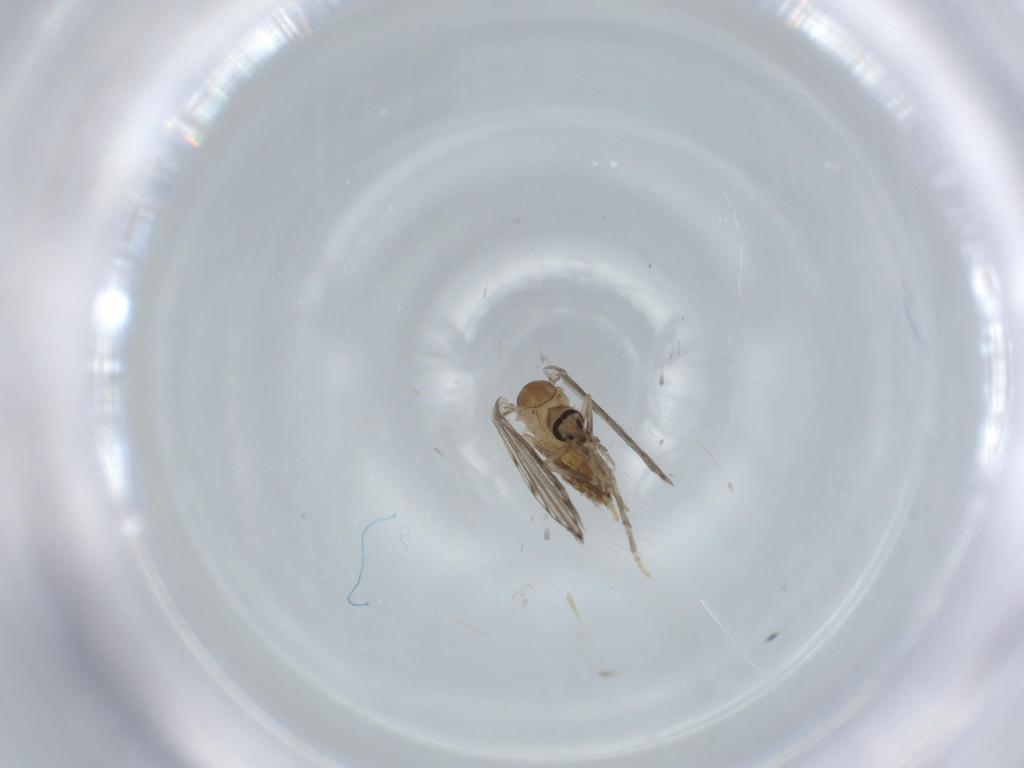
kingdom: Animalia
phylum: Arthropoda
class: Insecta
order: Diptera
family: Psychodidae
